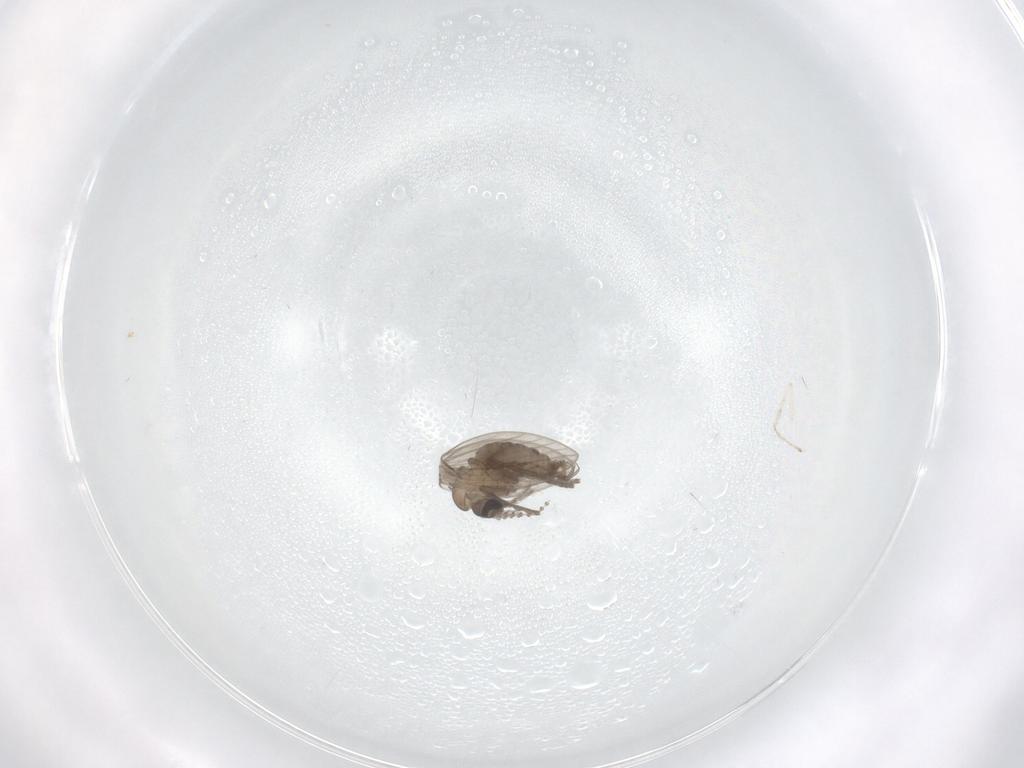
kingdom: Animalia
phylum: Arthropoda
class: Insecta
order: Diptera
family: Psychodidae
